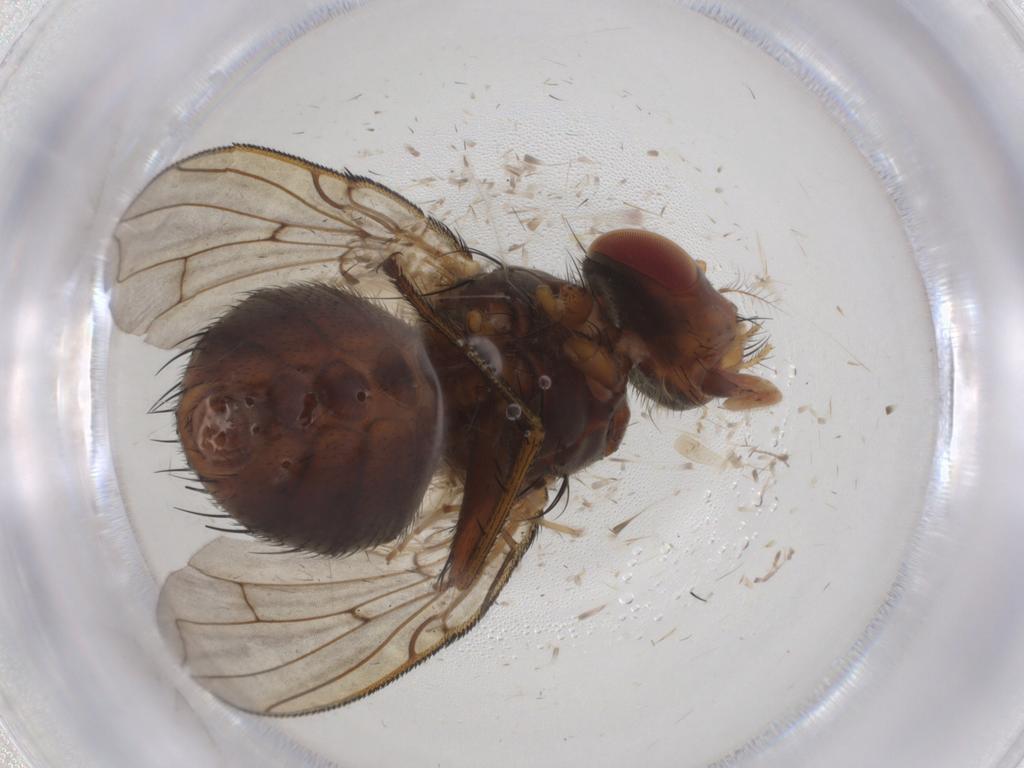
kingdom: Animalia
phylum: Arthropoda
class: Insecta
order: Diptera
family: Tachinidae
